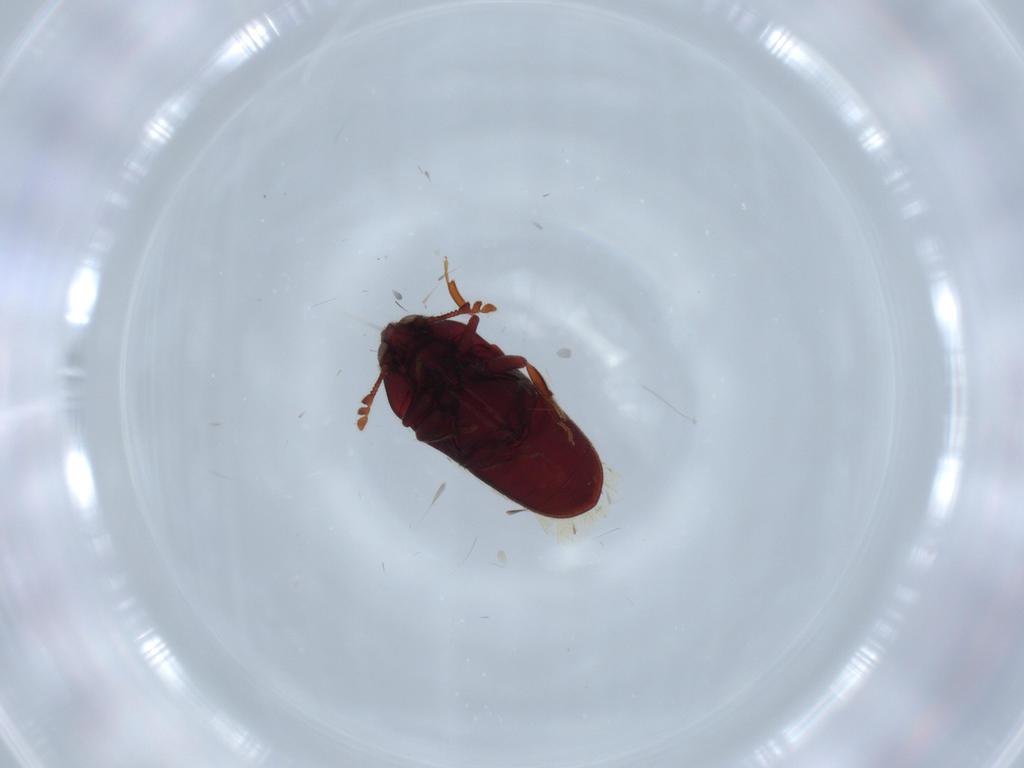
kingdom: Animalia
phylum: Arthropoda
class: Insecta
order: Coleoptera
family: Throscidae
